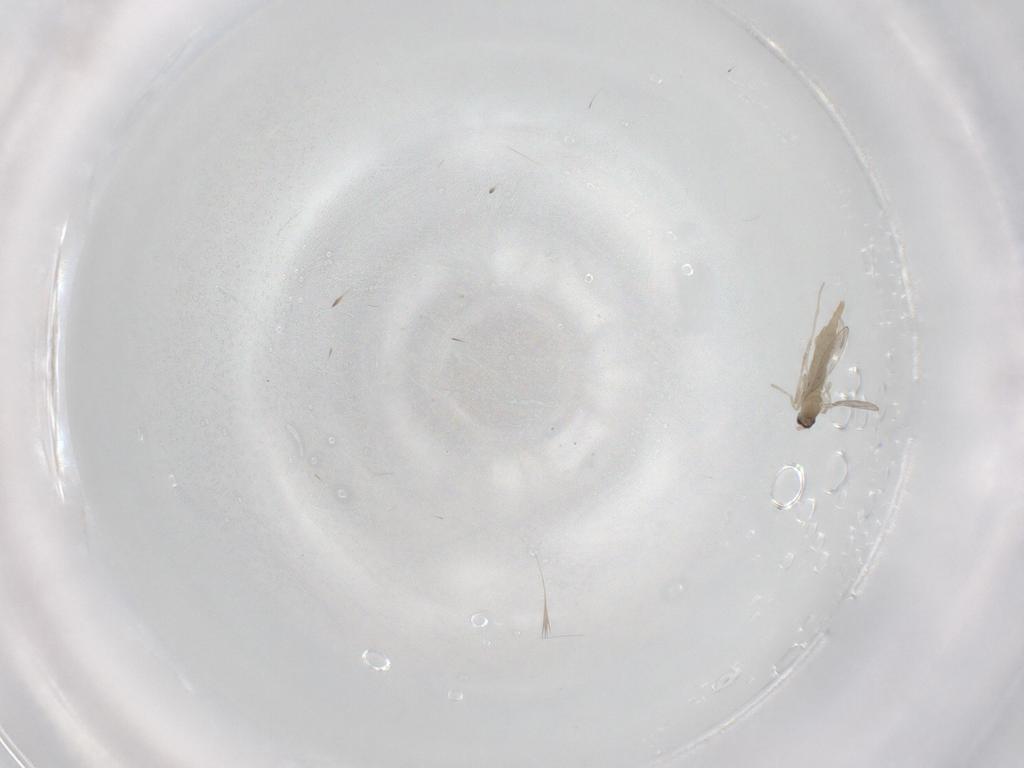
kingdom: Animalia
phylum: Arthropoda
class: Insecta
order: Diptera
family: Cecidomyiidae
